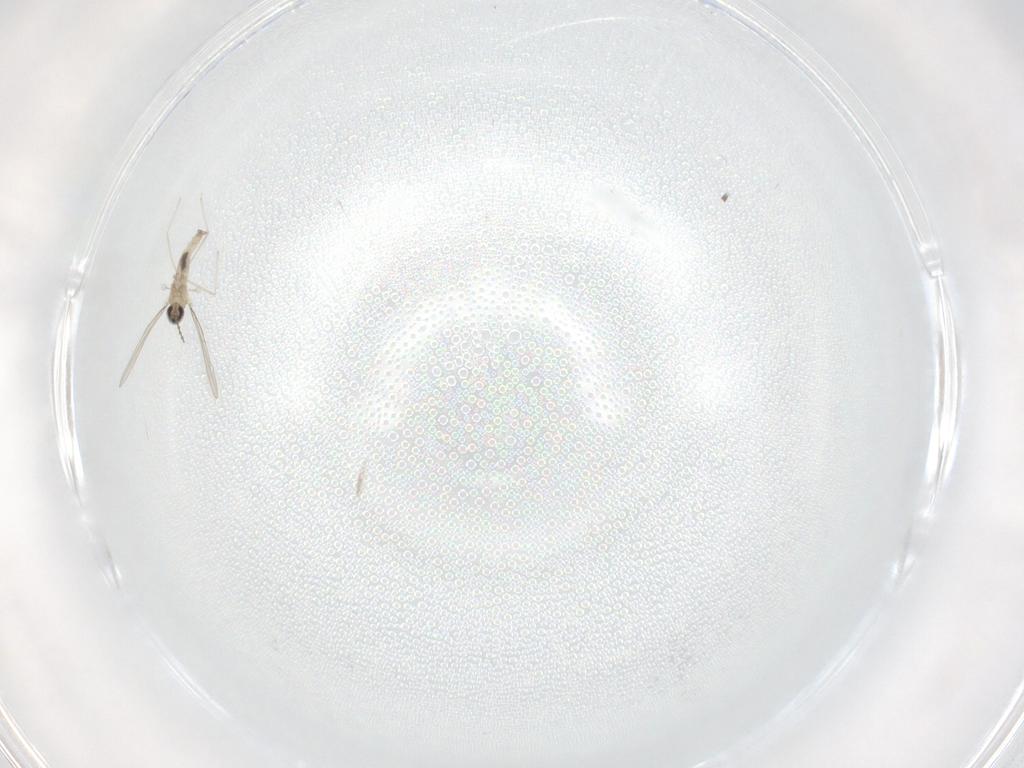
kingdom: Animalia
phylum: Arthropoda
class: Insecta
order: Diptera
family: Cecidomyiidae
